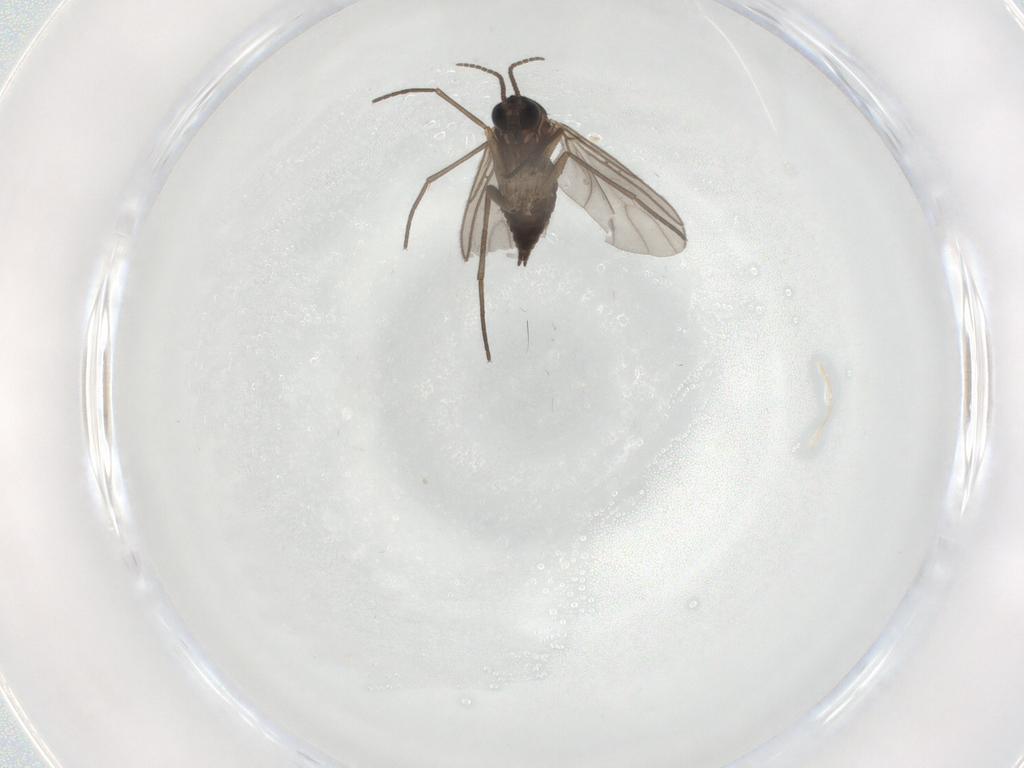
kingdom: Animalia
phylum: Arthropoda
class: Insecta
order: Diptera
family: Sciaridae
